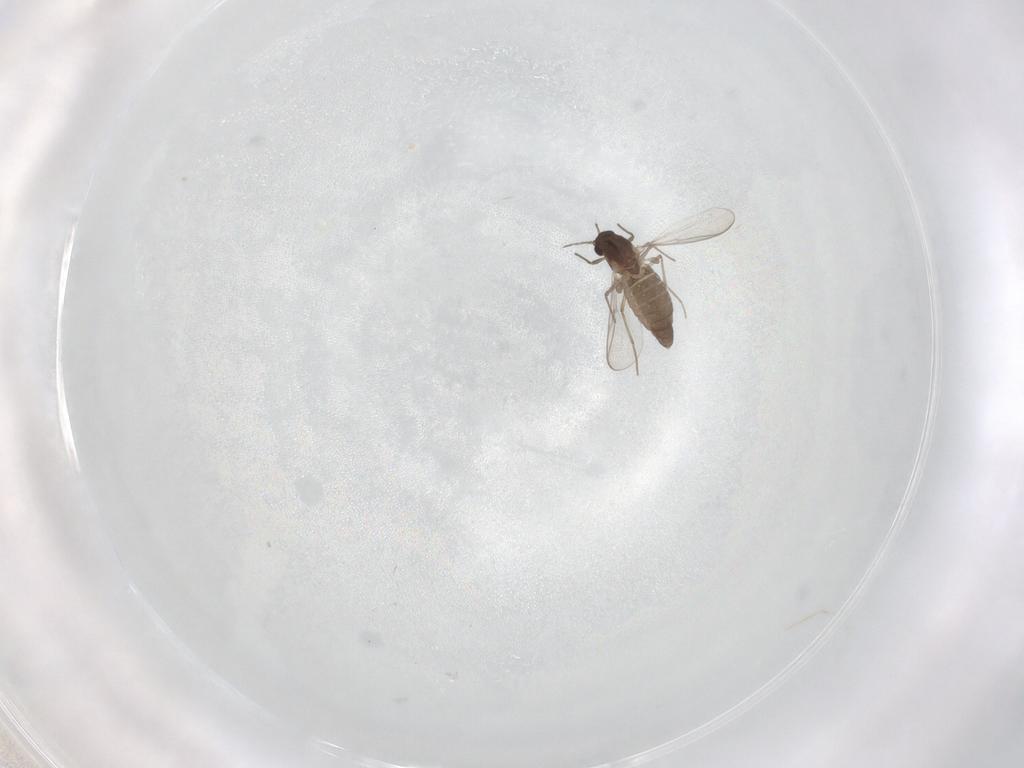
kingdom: Animalia
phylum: Arthropoda
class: Insecta
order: Diptera
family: Chironomidae
